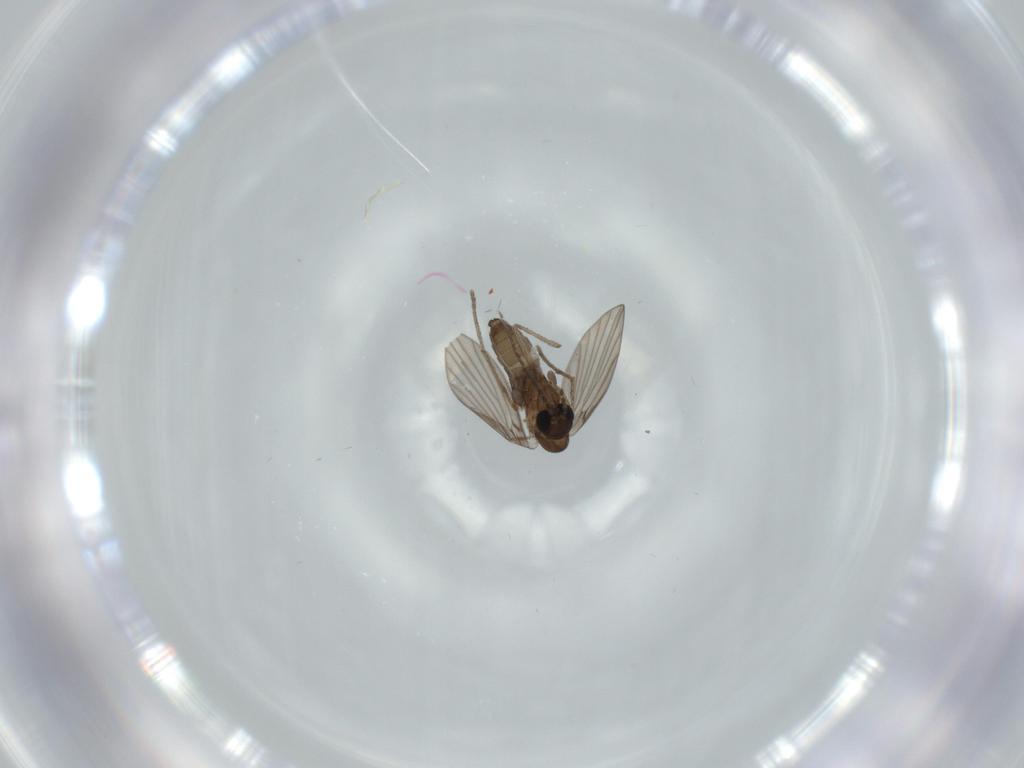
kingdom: Animalia
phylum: Arthropoda
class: Insecta
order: Diptera
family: Sciaridae
